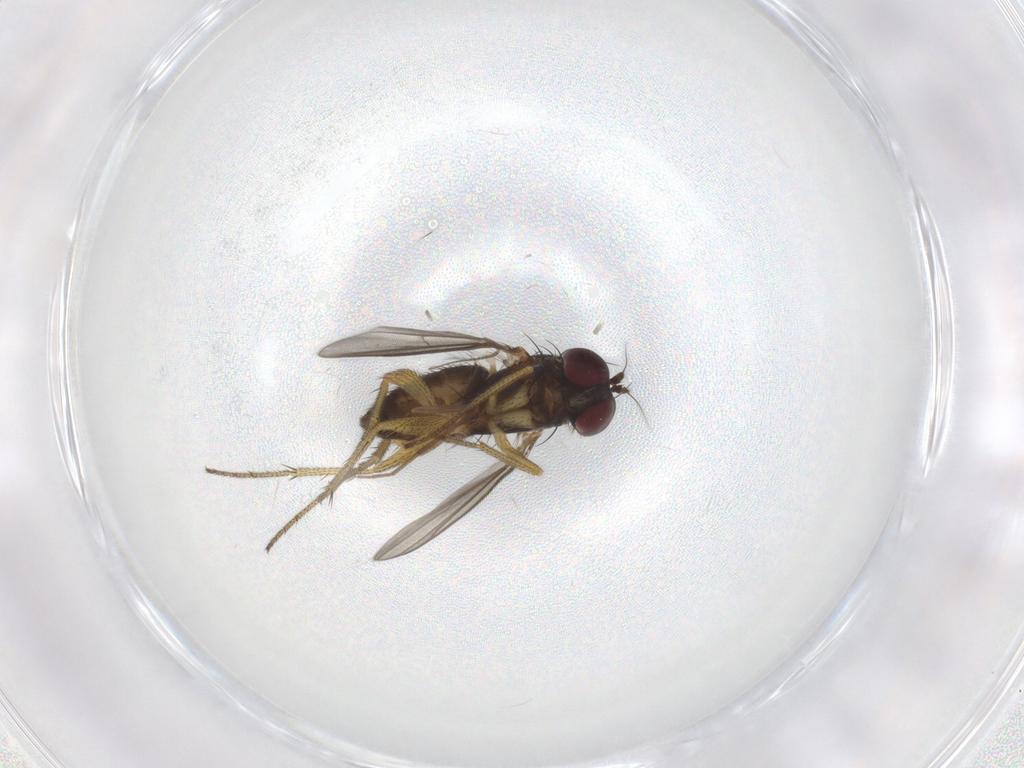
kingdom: Animalia
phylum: Arthropoda
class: Insecta
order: Diptera
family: Dolichopodidae
